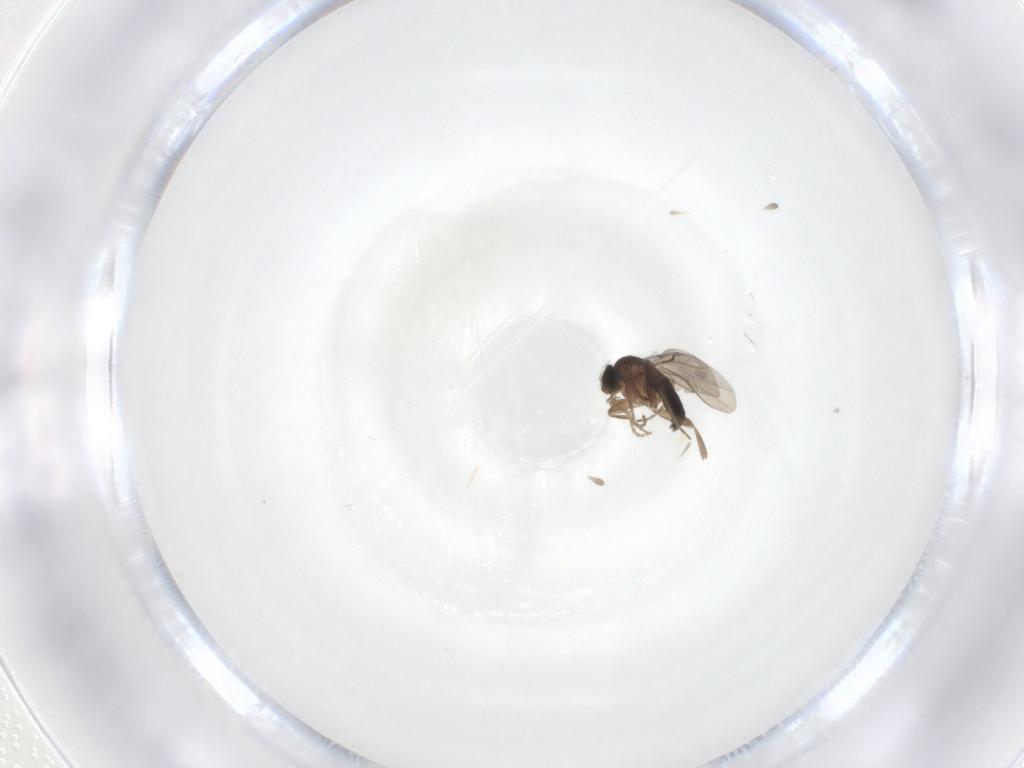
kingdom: Animalia
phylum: Arthropoda
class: Insecta
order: Diptera
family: Phoridae
